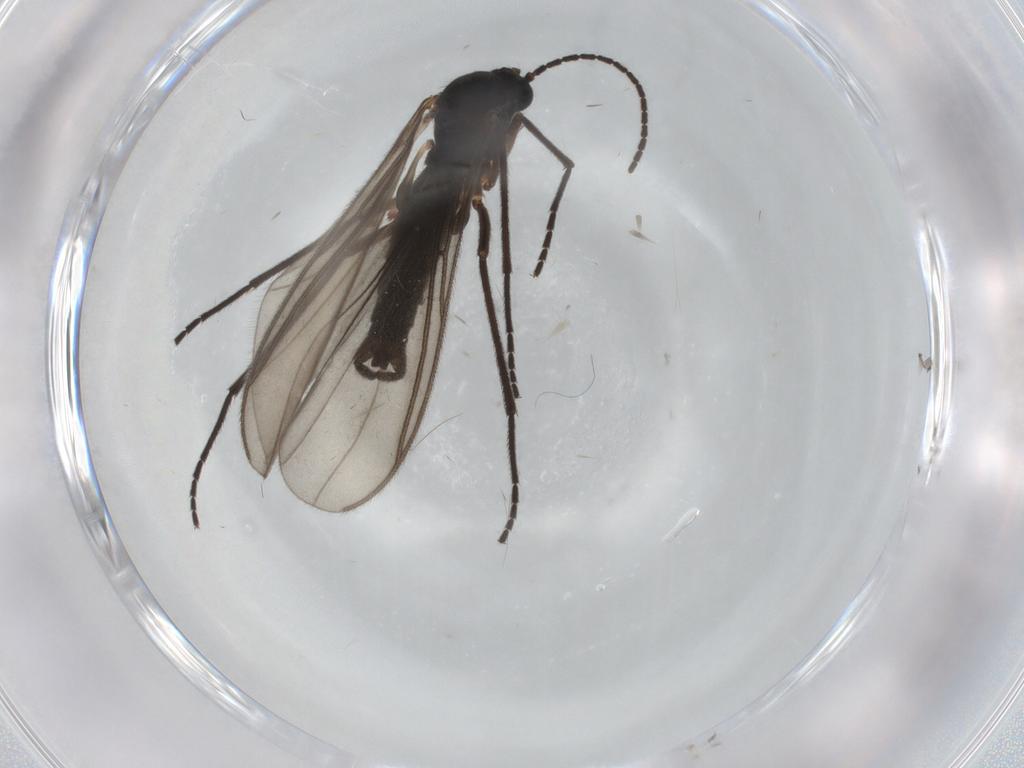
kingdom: Animalia
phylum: Arthropoda
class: Insecta
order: Diptera
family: Sciaridae
